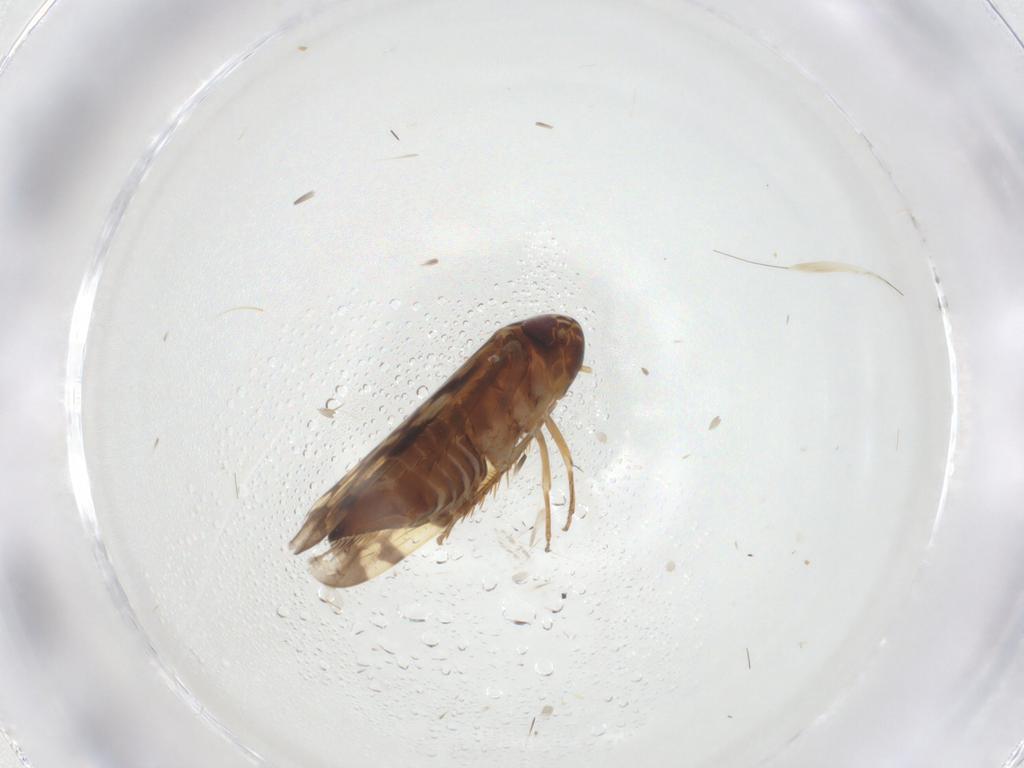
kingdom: Animalia
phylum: Arthropoda
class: Insecta
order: Hemiptera
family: Cicadellidae
